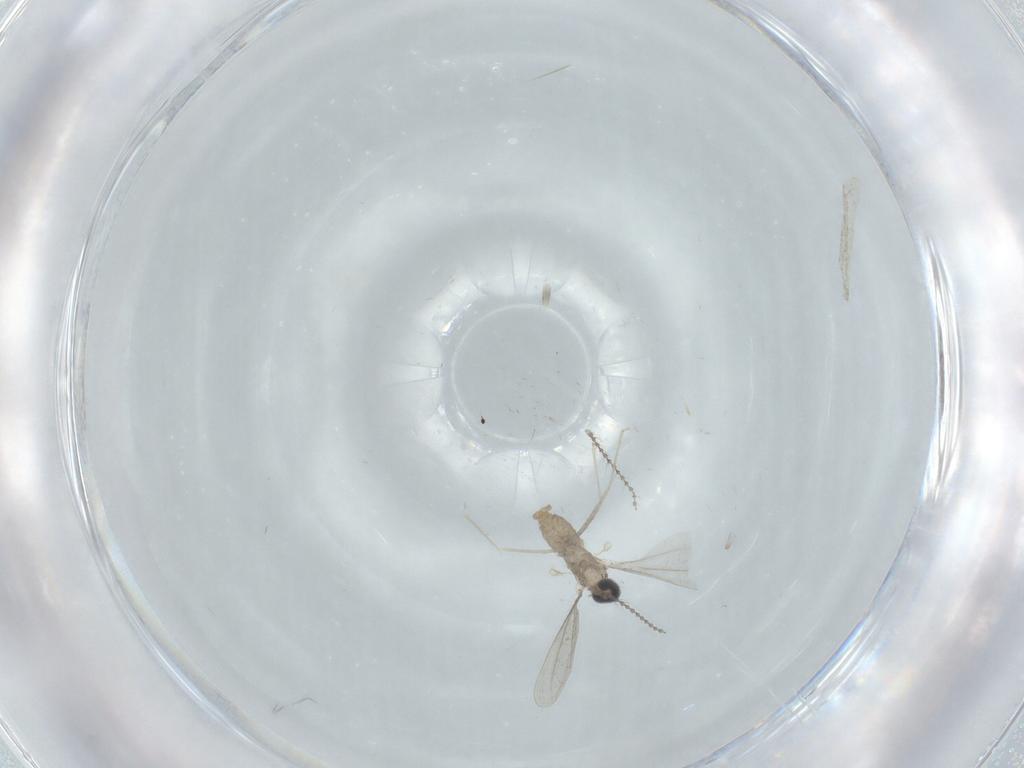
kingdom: Animalia
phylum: Arthropoda
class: Insecta
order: Diptera
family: Cecidomyiidae
